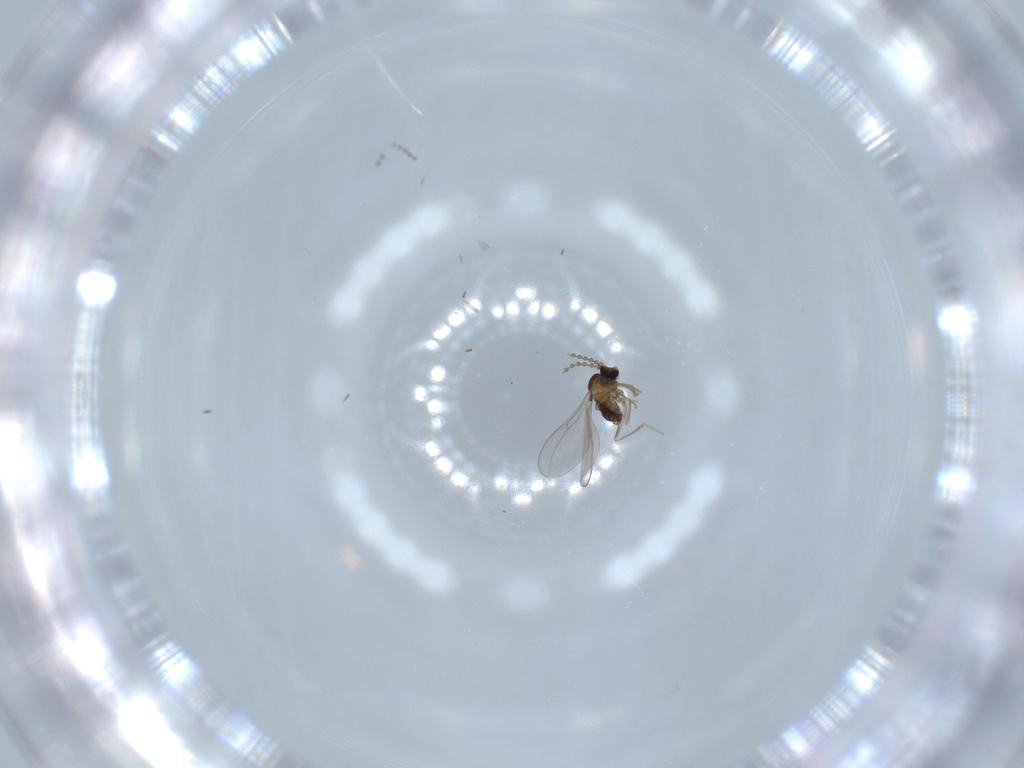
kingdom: Animalia
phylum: Arthropoda
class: Insecta
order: Diptera
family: Cecidomyiidae
